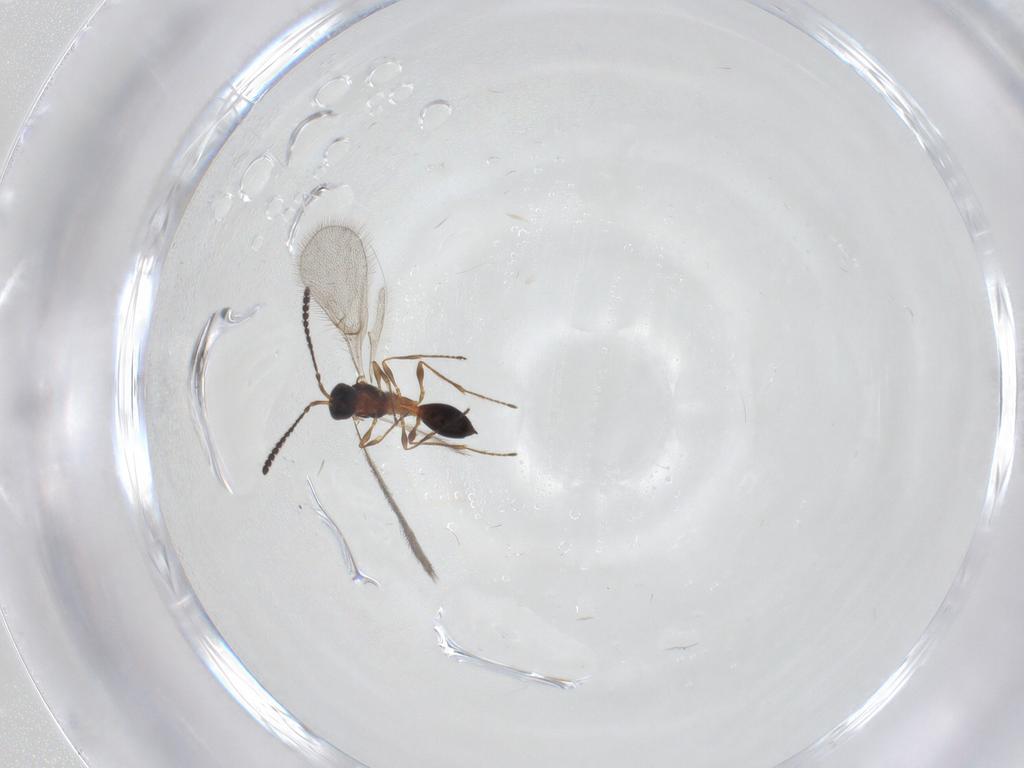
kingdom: Animalia
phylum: Arthropoda
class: Insecta
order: Hymenoptera
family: Diapriidae
